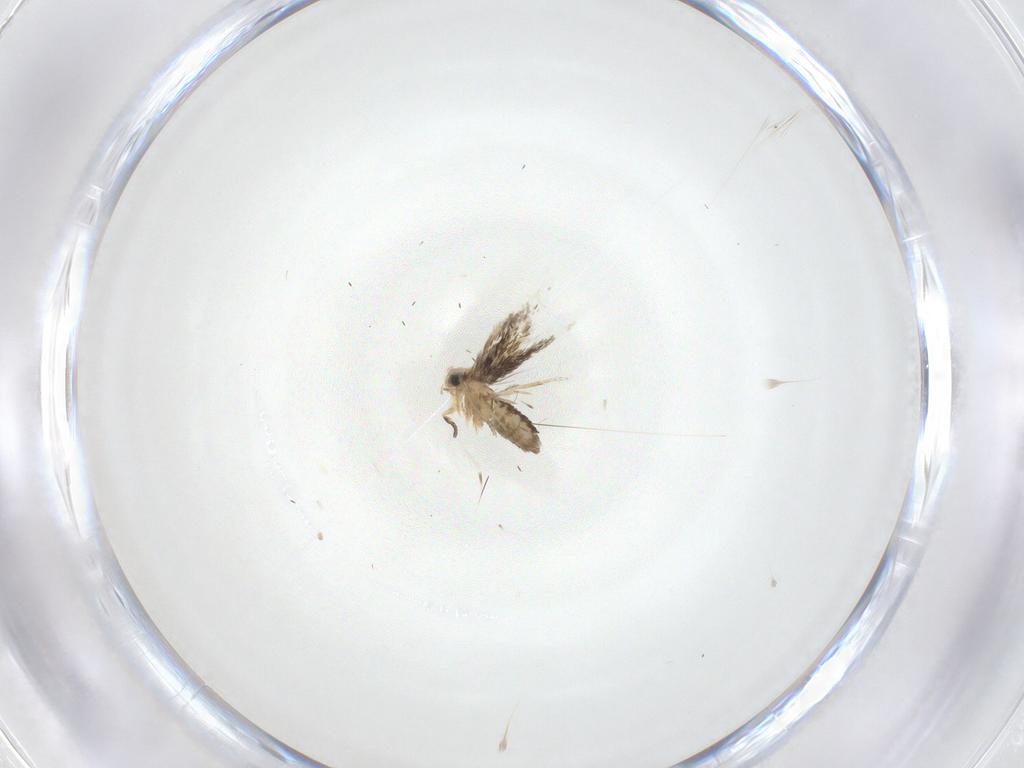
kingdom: Animalia
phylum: Arthropoda
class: Insecta
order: Lepidoptera
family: Erebidae
